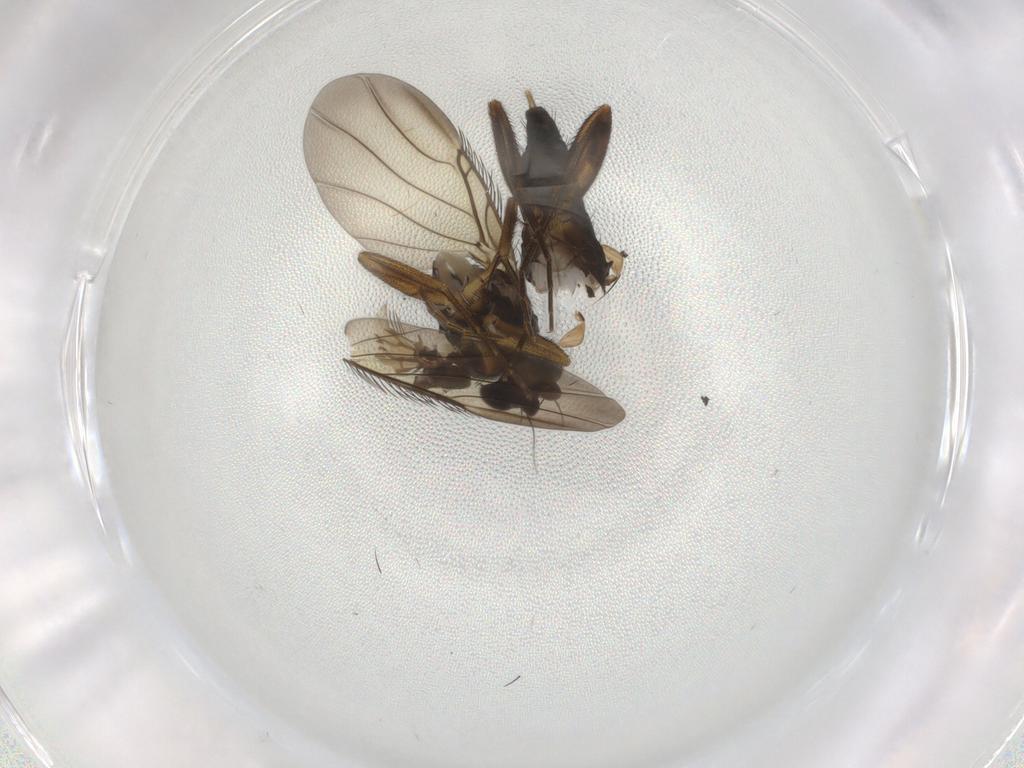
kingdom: Animalia
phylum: Arthropoda
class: Insecta
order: Diptera
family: Phoridae
